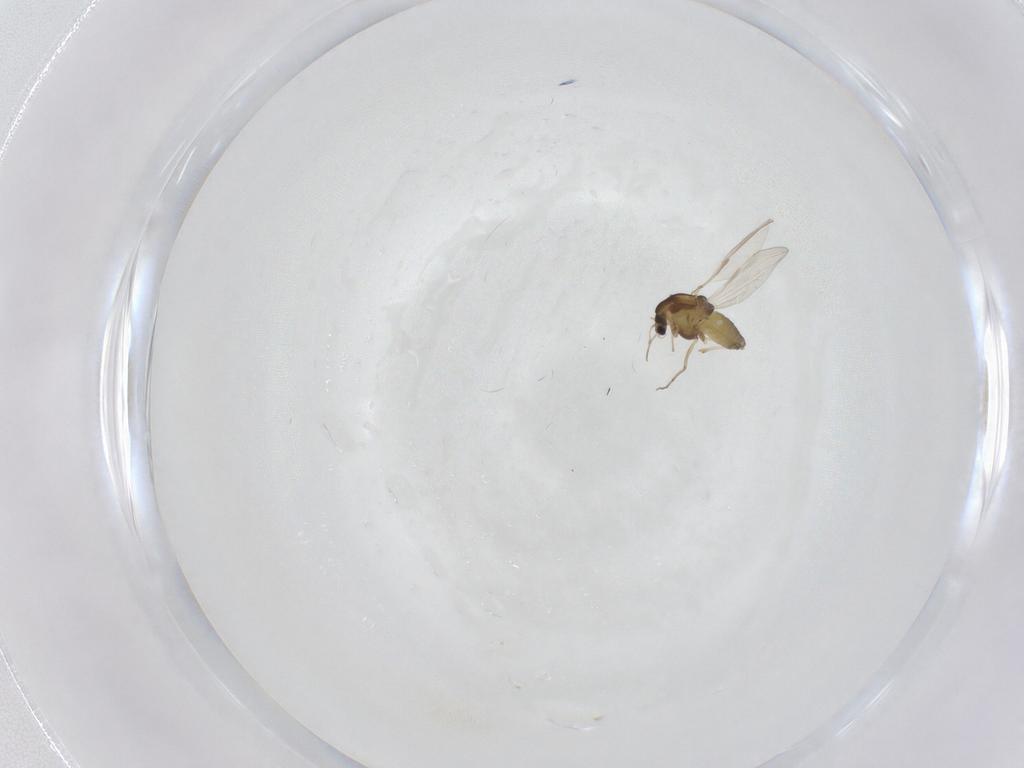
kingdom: Animalia
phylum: Arthropoda
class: Insecta
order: Diptera
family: Chironomidae
